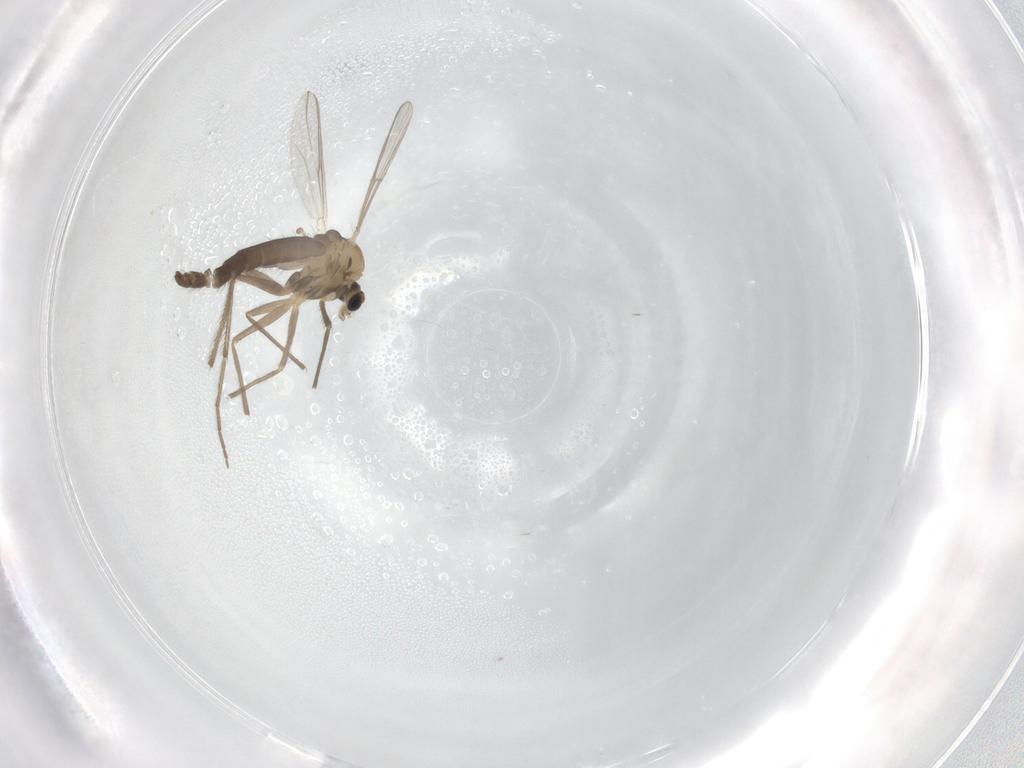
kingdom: Animalia
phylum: Arthropoda
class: Insecta
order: Diptera
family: Chironomidae
